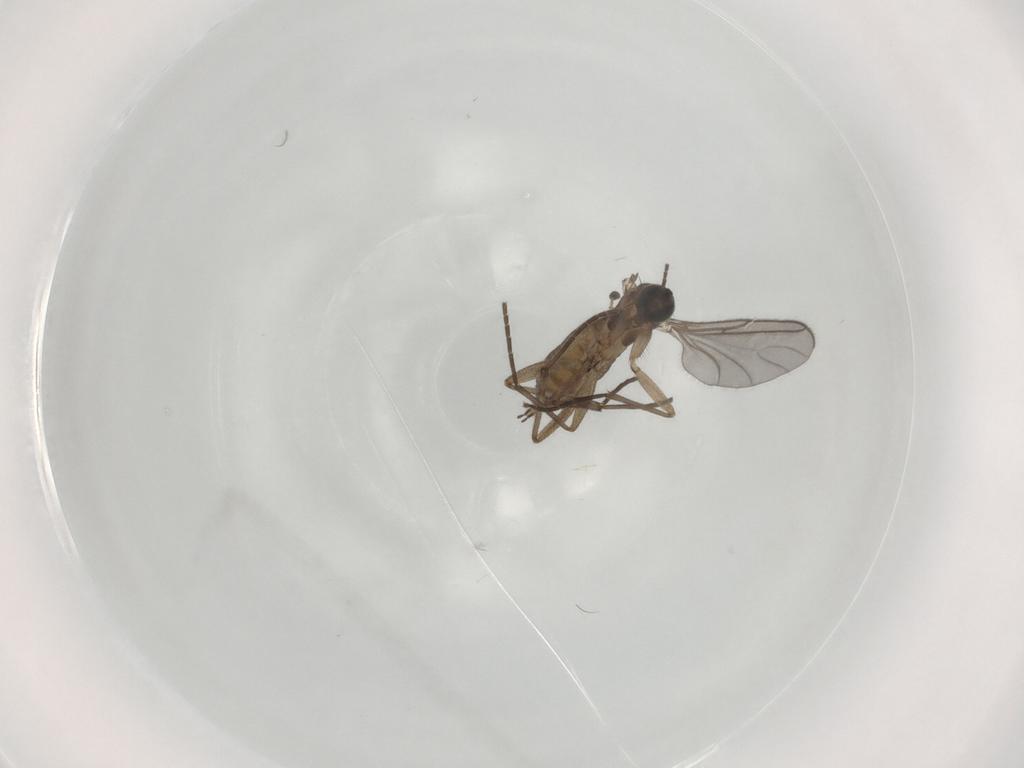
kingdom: Animalia
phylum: Arthropoda
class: Insecta
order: Diptera
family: Sciaridae
